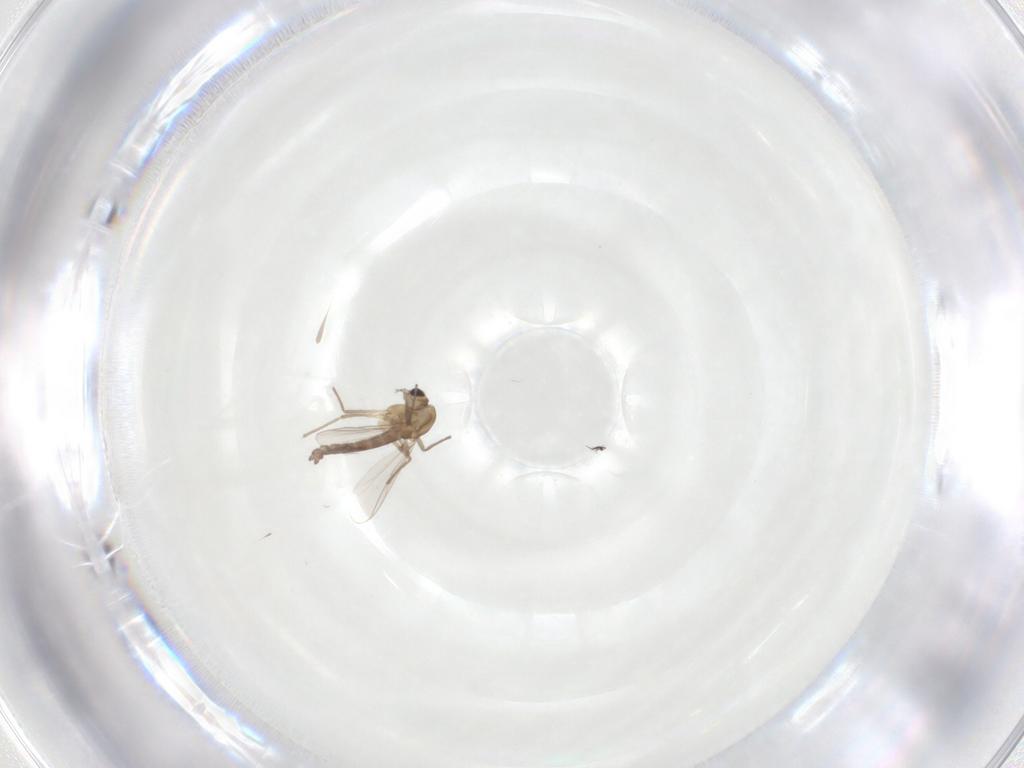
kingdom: Animalia
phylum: Arthropoda
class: Insecta
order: Diptera
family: Chironomidae
